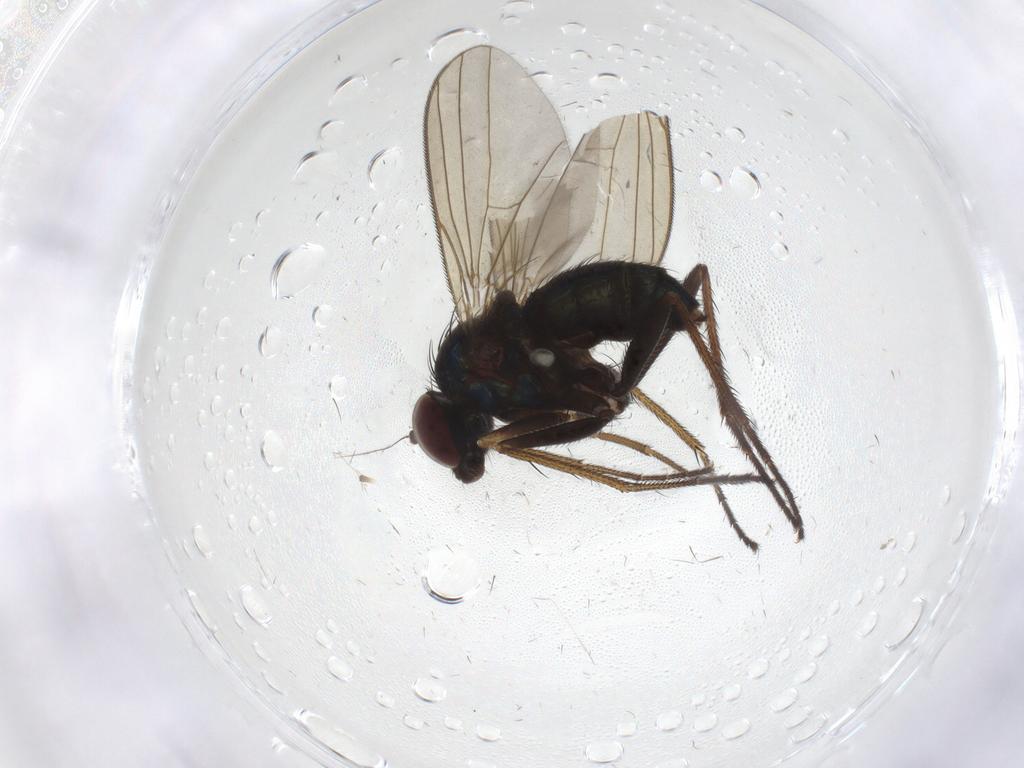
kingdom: Animalia
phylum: Arthropoda
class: Insecta
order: Diptera
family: Dolichopodidae
